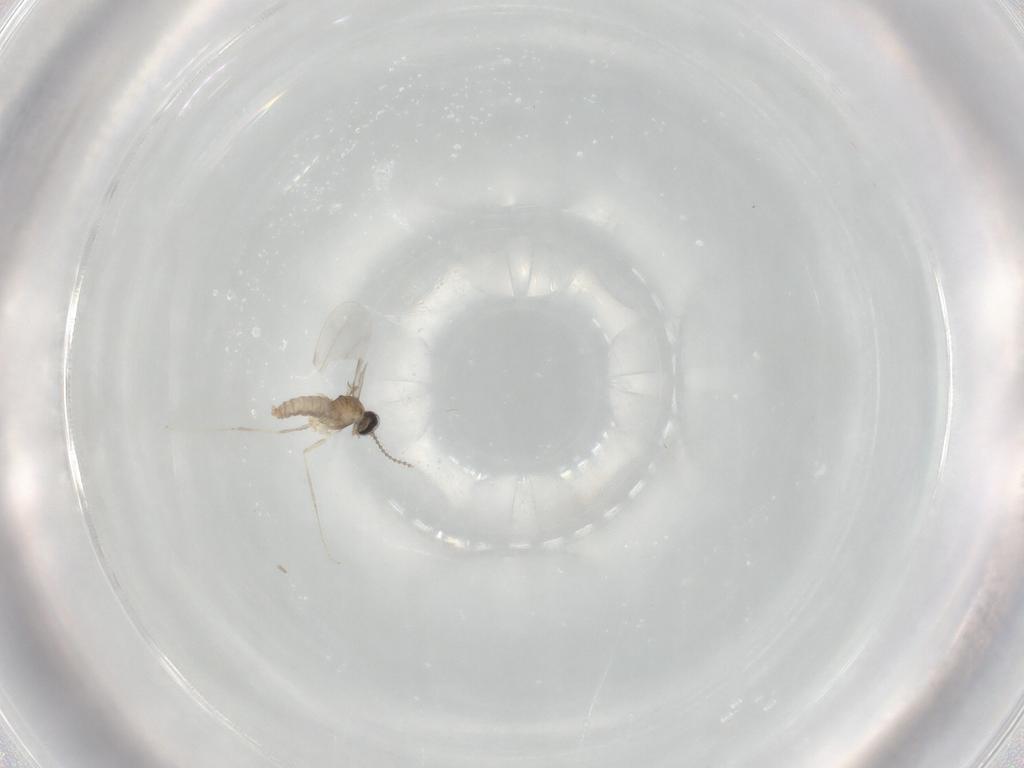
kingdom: Animalia
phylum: Arthropoda
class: Insecta
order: Diptera
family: Cecidomyiidae
